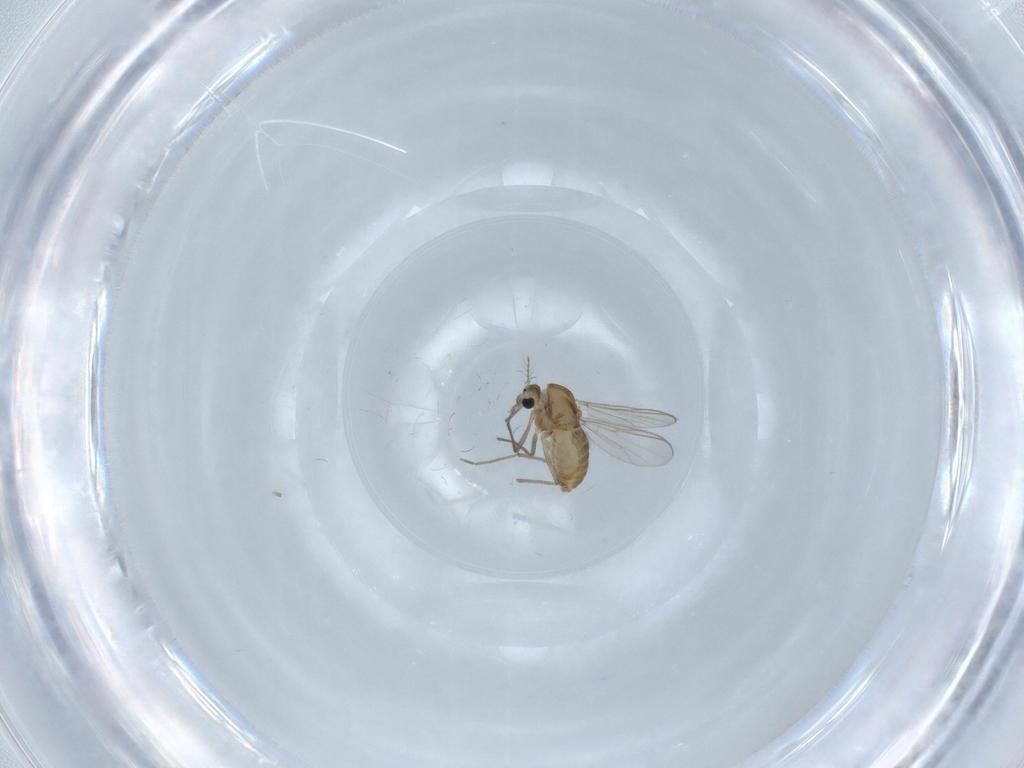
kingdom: Animalia
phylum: Arthropoda
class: Insecta
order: Diptera
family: Chironomidae
